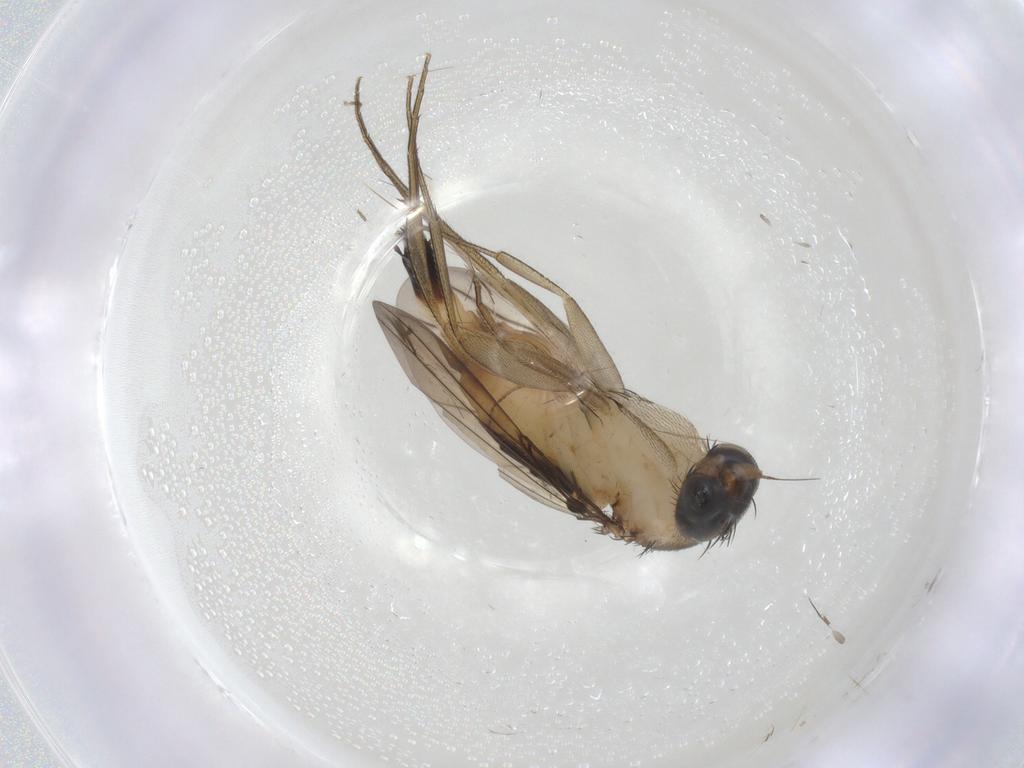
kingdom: Animalia
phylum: Arthropoda
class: Insecta
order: Diptera
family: Phoridae
